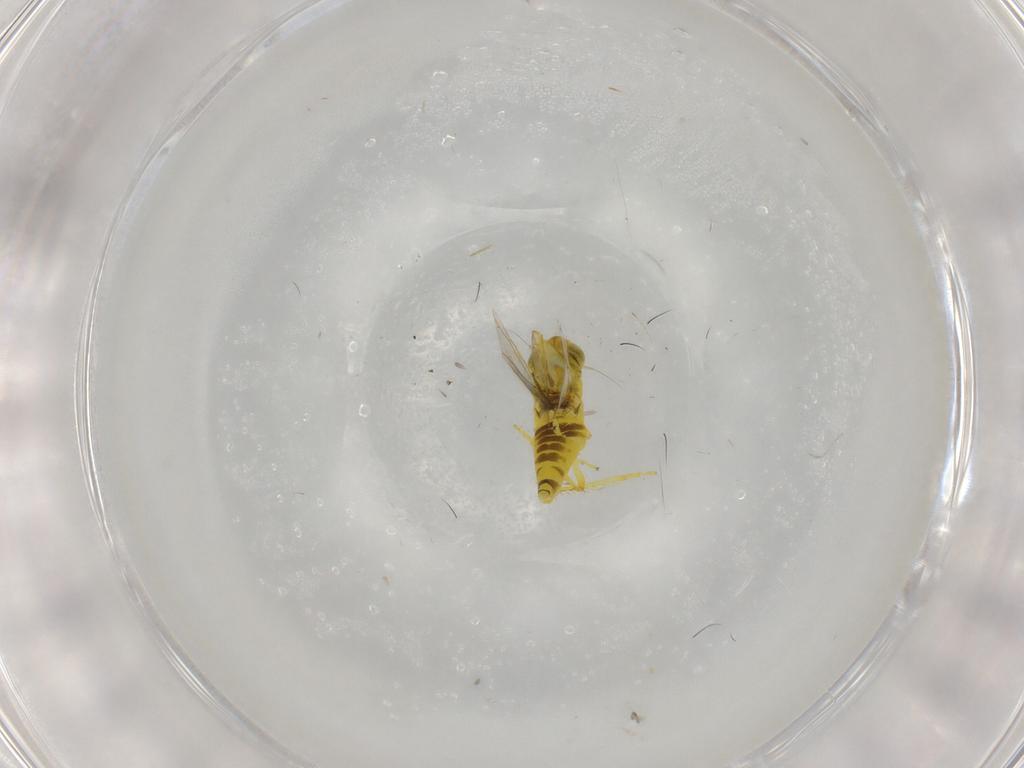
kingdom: Animalia
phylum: Arthropoda
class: Insecta
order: Hemiptera
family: Cicadellidae
